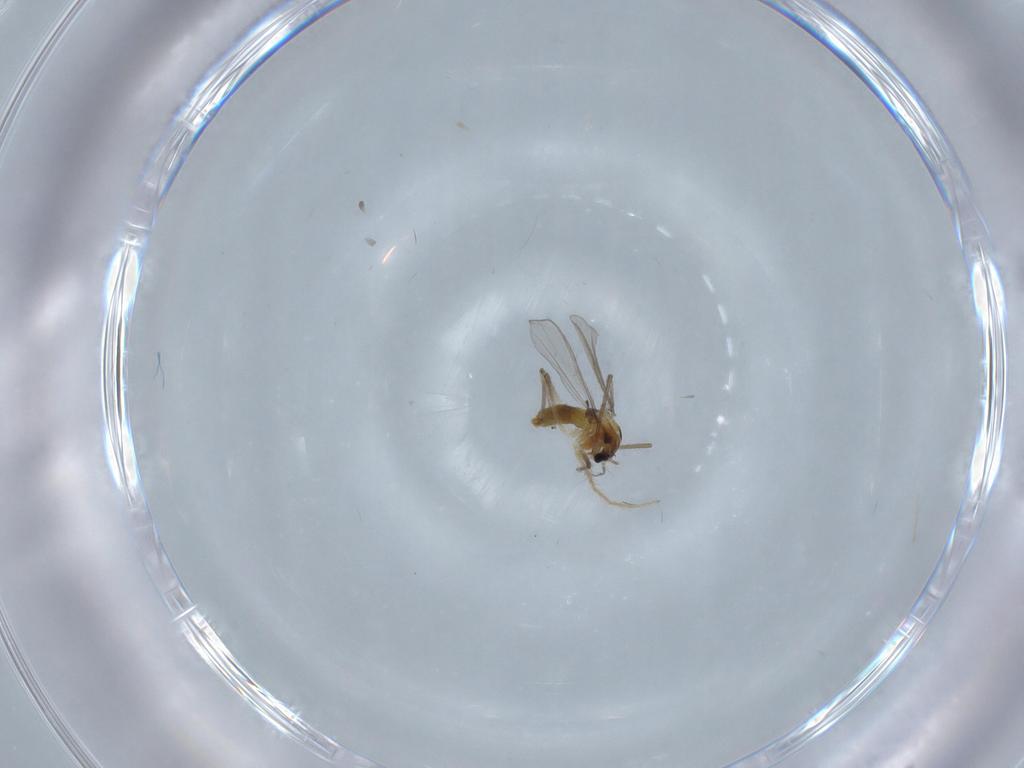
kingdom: Animalia
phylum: Arthropoda
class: Insecta
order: Diptera
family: Chironomidae
